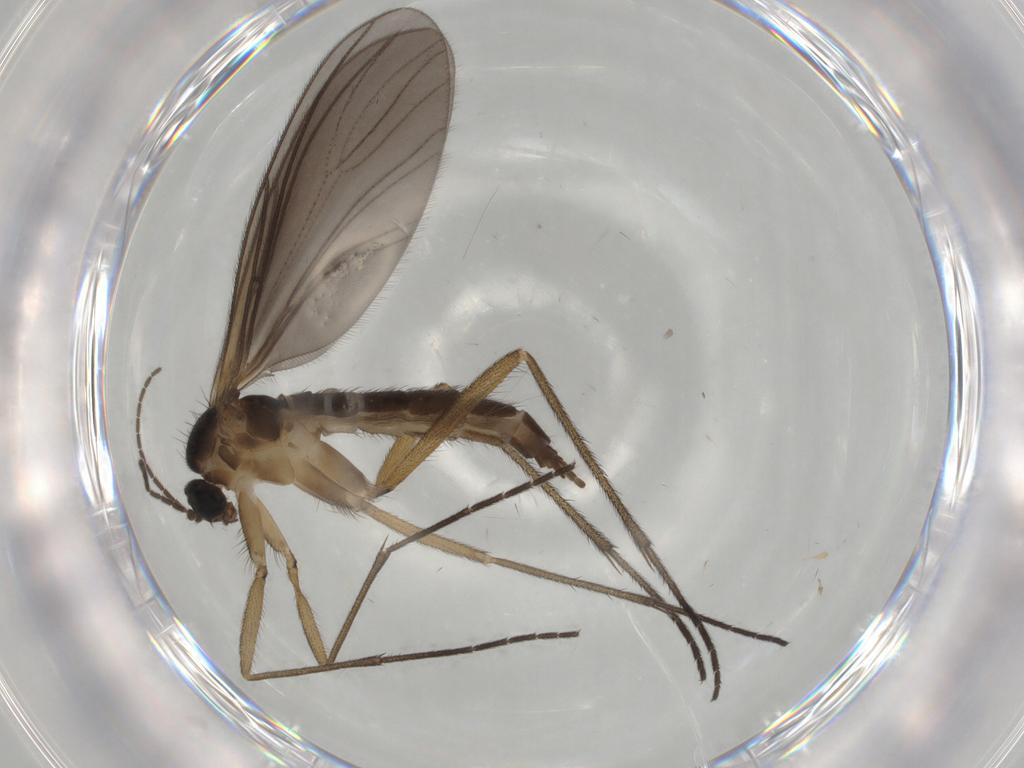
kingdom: Animalia
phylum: Arthropoda
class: Insecta
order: Diptera
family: Sciaridae
